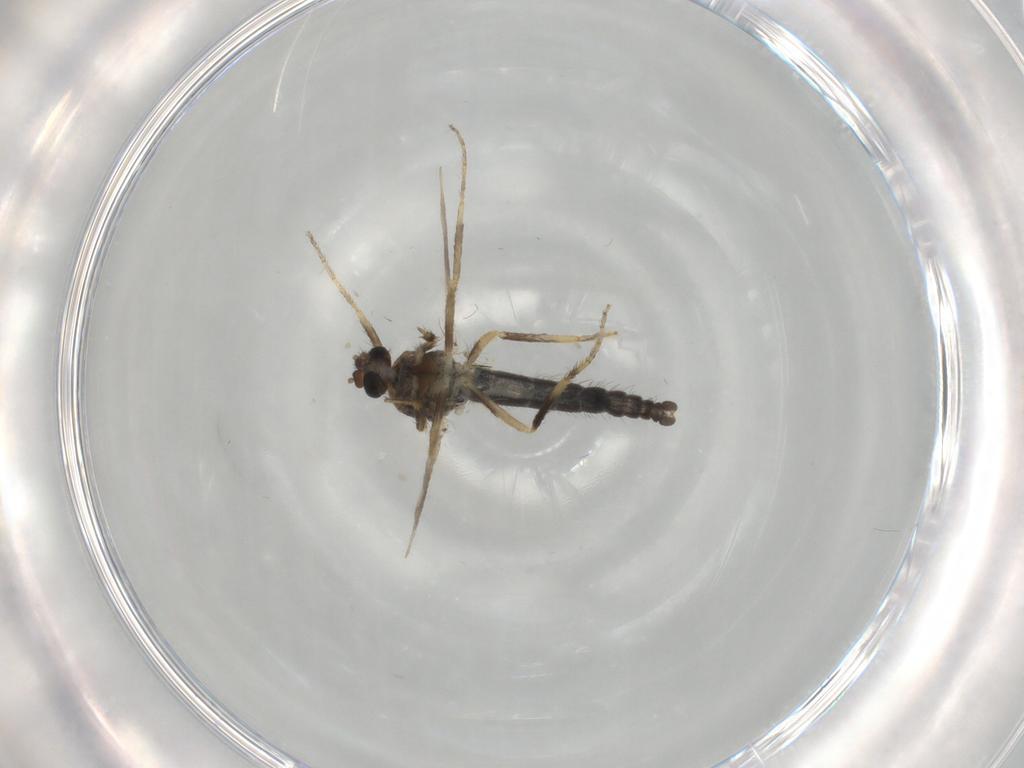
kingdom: Animalia
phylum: Arthropoda
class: Insecta
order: Diptera
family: Ceratopogonidae
